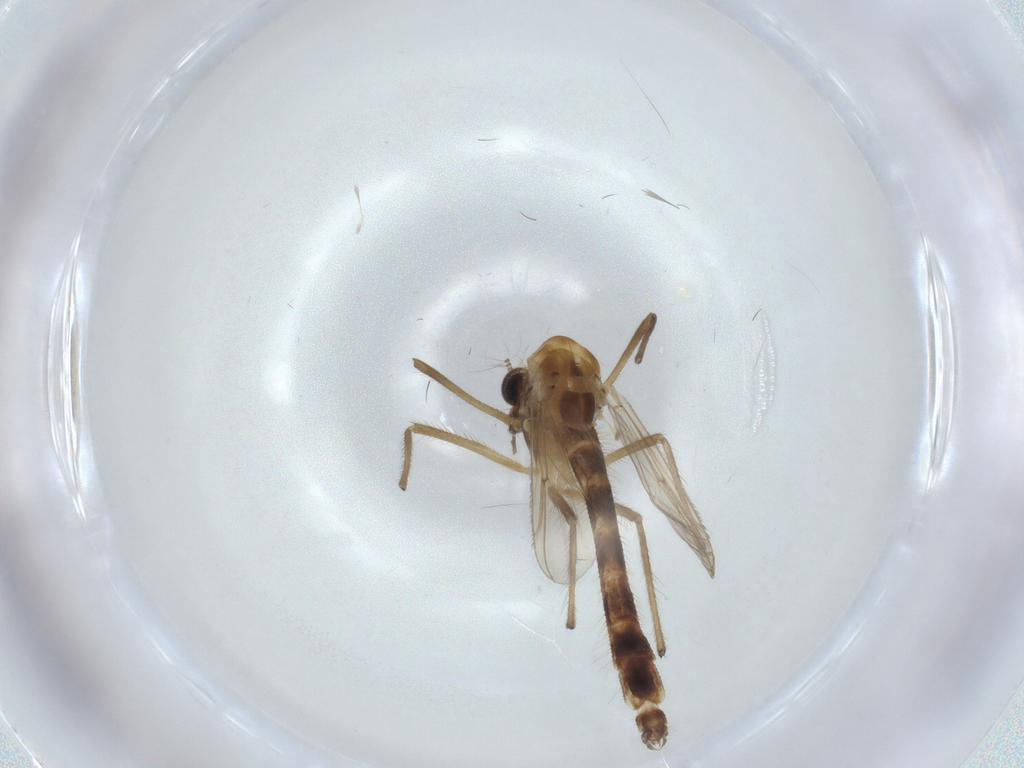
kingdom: Animalia
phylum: Arthropoda
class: Insecta
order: Diptera
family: Chironomidae
